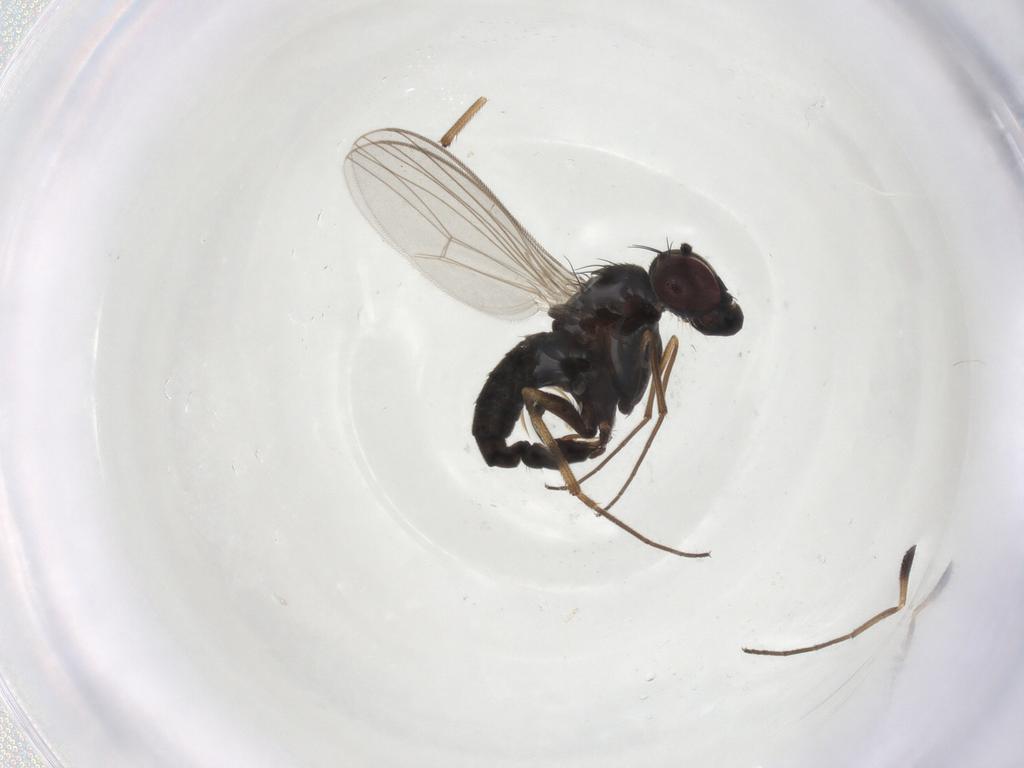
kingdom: Animalia
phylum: Arthropoda
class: Insecta
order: Diptera
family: Dolichopodidae
